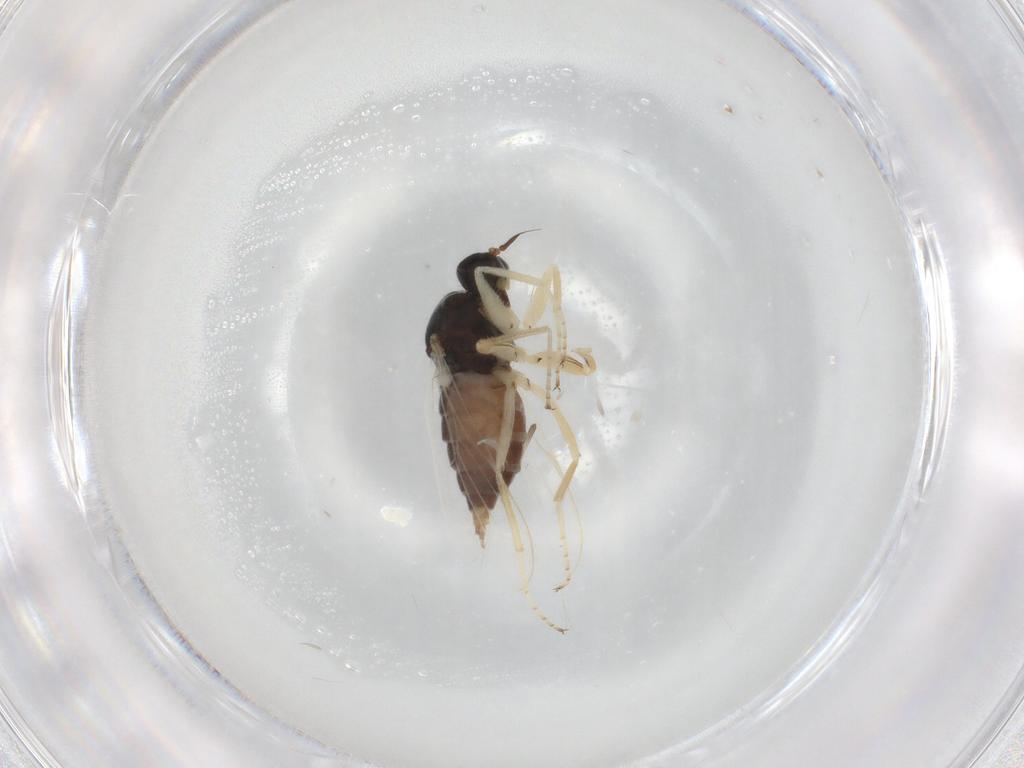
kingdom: Animalia
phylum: Arthropoda
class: Insecta
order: Diptera
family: Hybotidae
